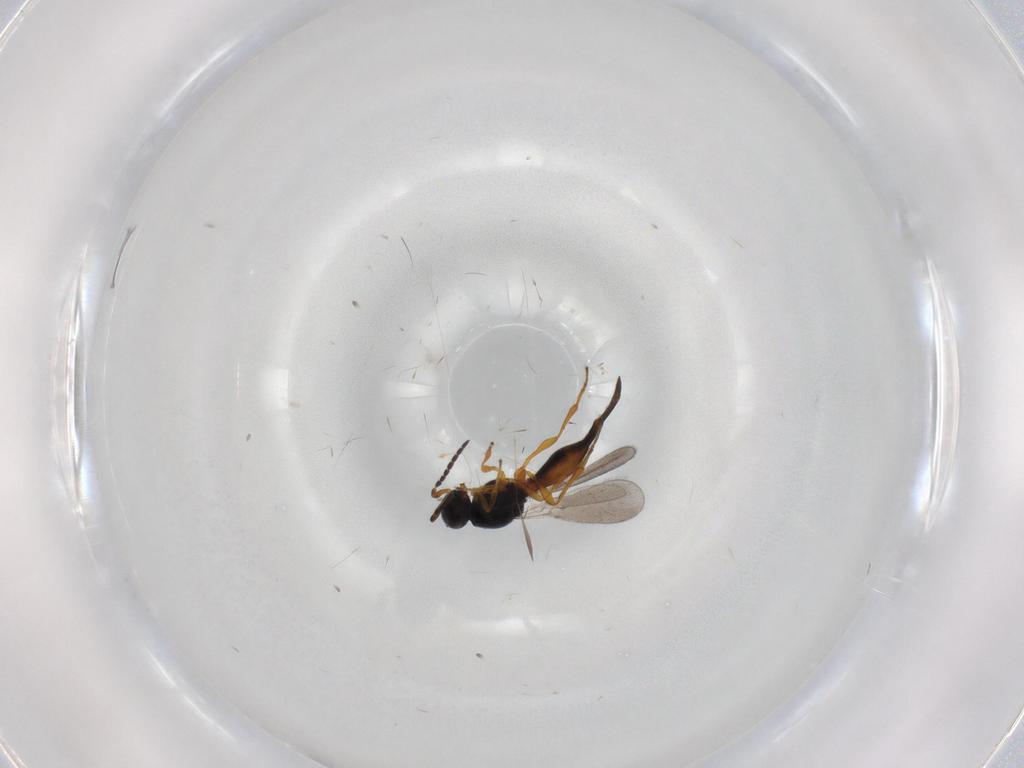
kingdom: Animalia
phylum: Arthropoda
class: Insecta
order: Hymenoptera
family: Platygastridae
